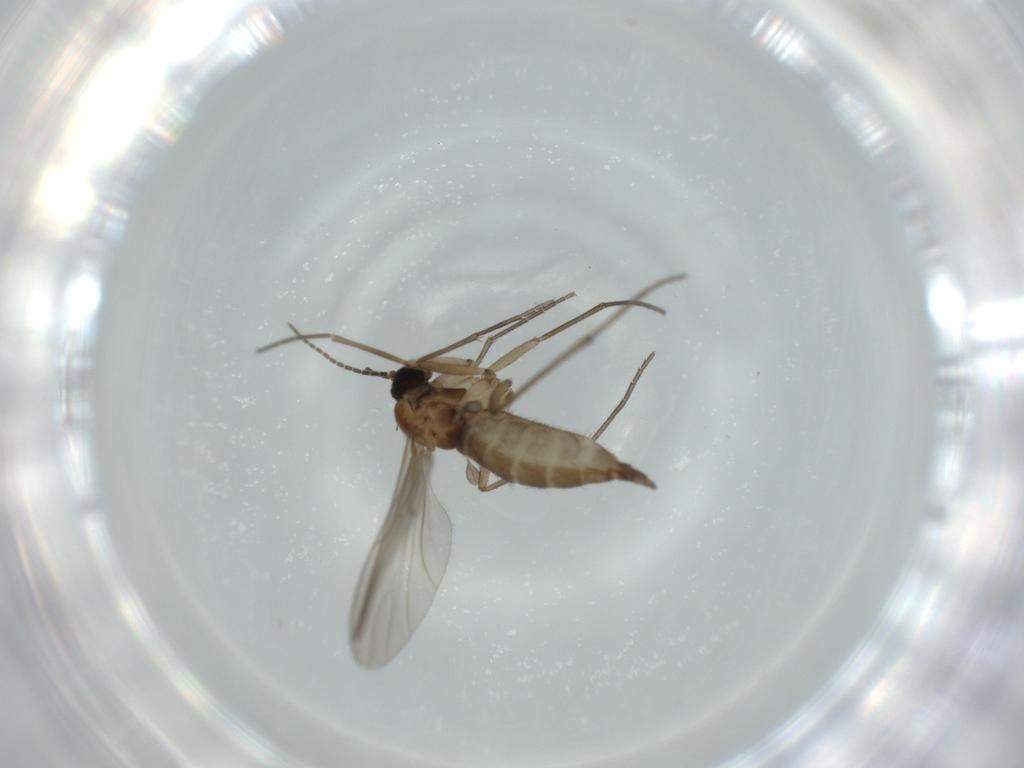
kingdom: Animalia
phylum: Arthropoda
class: Insecta
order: Diptera
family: Sciaridae
